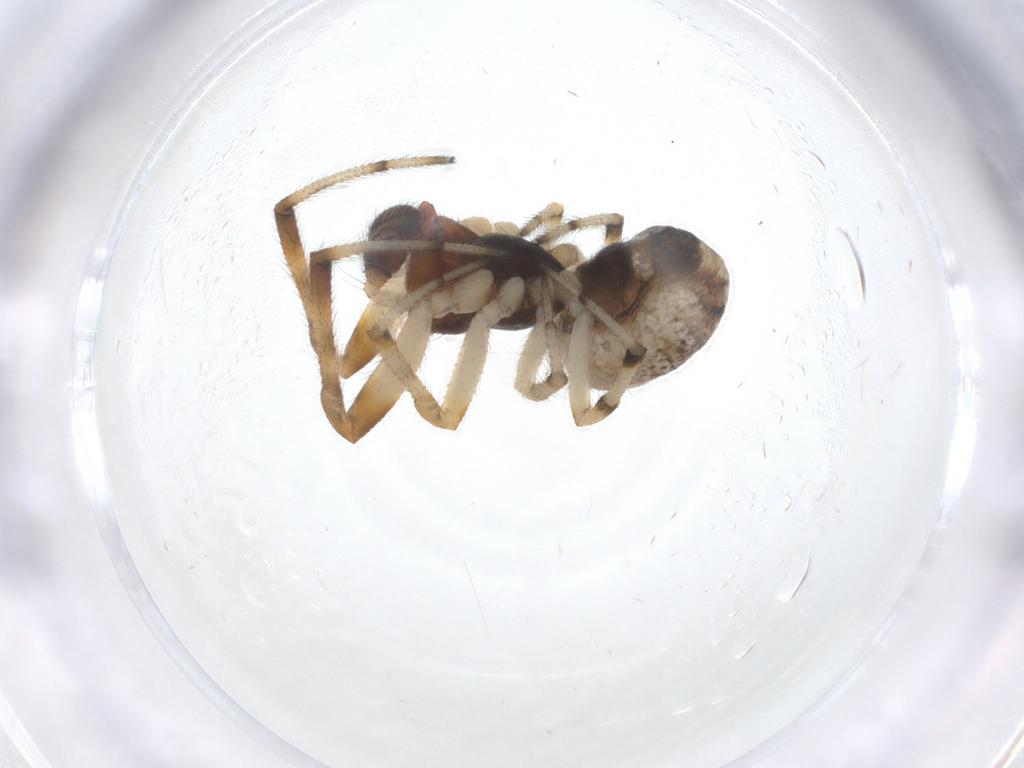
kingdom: Animalia
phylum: Arthropoda
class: Arachnida
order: Araneae
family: Theridiidae
